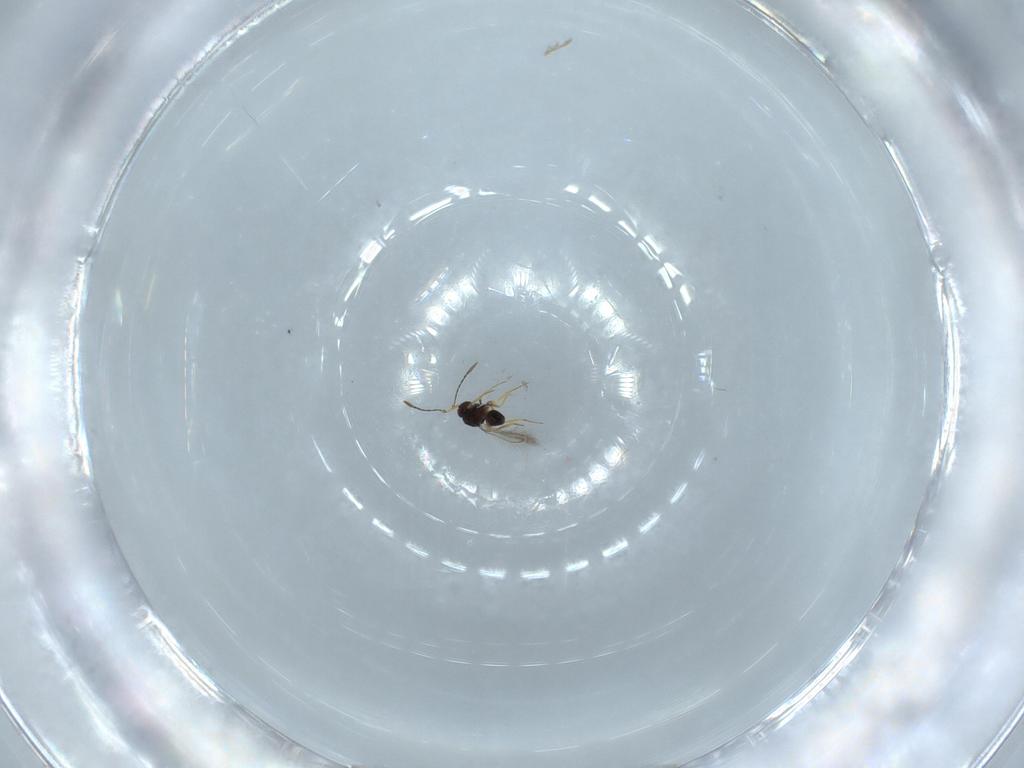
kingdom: Animalia
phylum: Arthropoda
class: Insecta
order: Hymenoptera
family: Mymaridae
